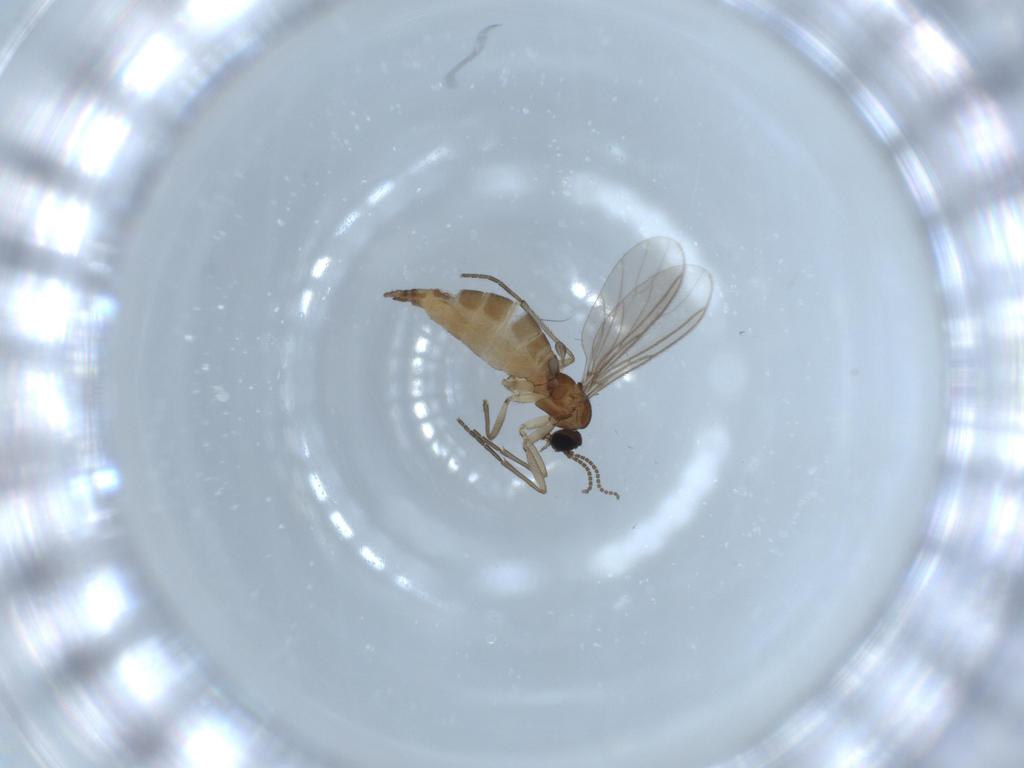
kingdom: Animalia
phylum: Arthropoda
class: Insecta
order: Diptera
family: Sciaridae
